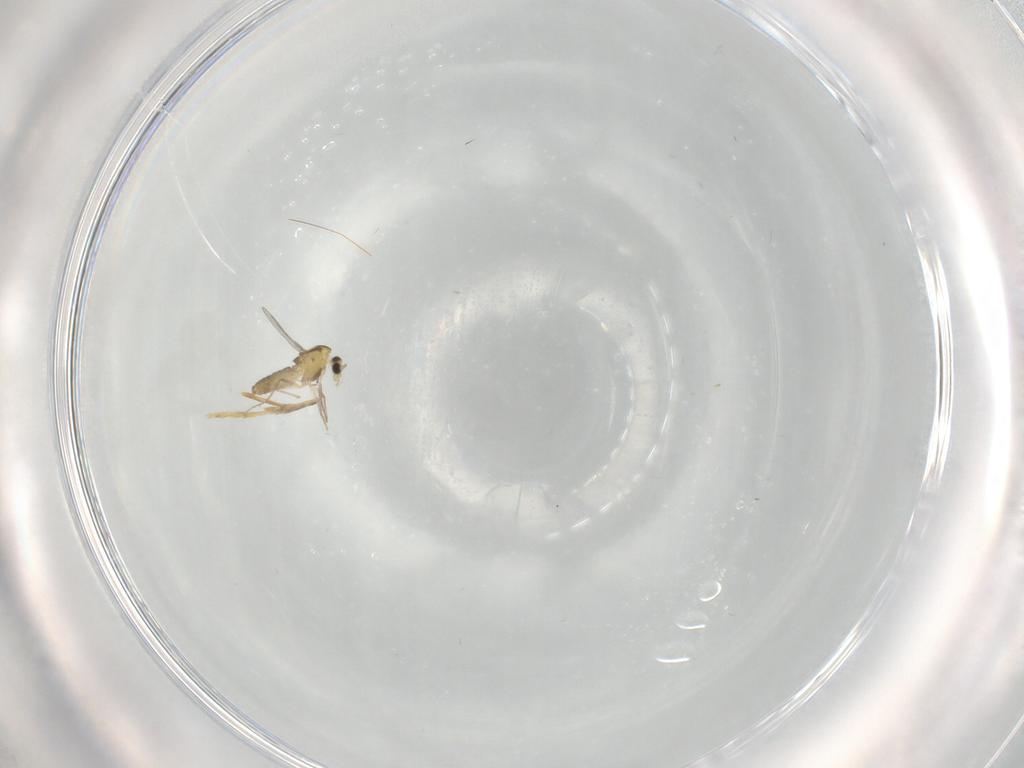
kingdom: Animalia
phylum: Arthropoda
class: Insecta
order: Diptera
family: Chironomidae
